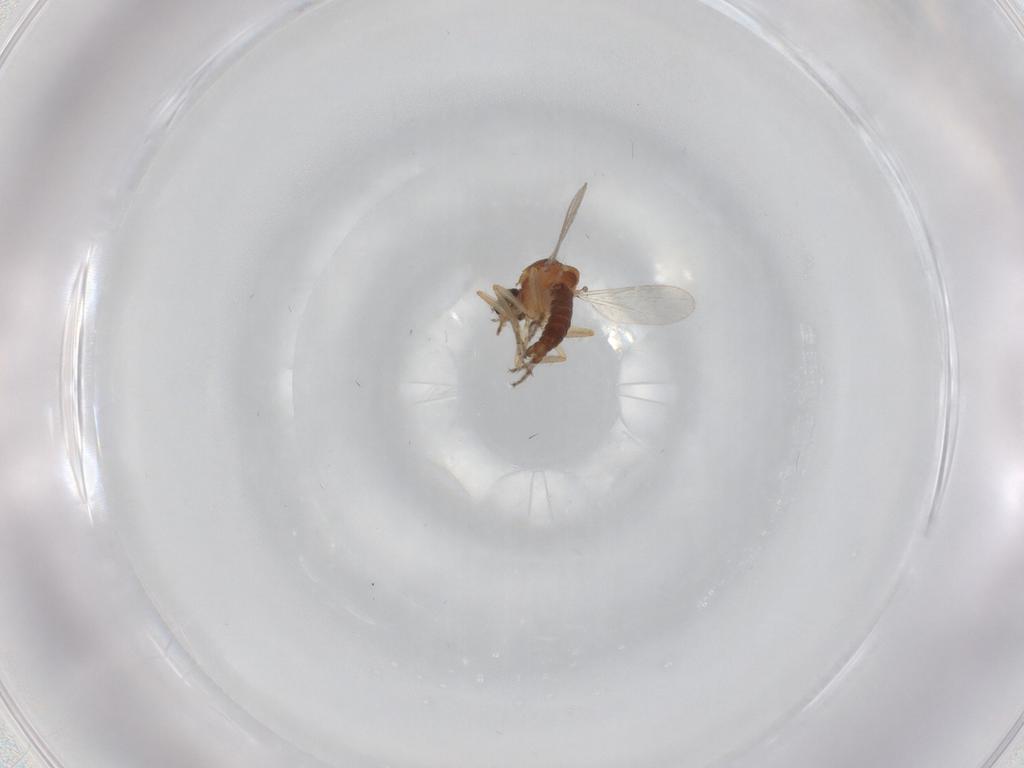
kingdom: Animalia
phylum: Arthropoda
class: Insecta
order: Diptera
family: Ceratopogonidae
